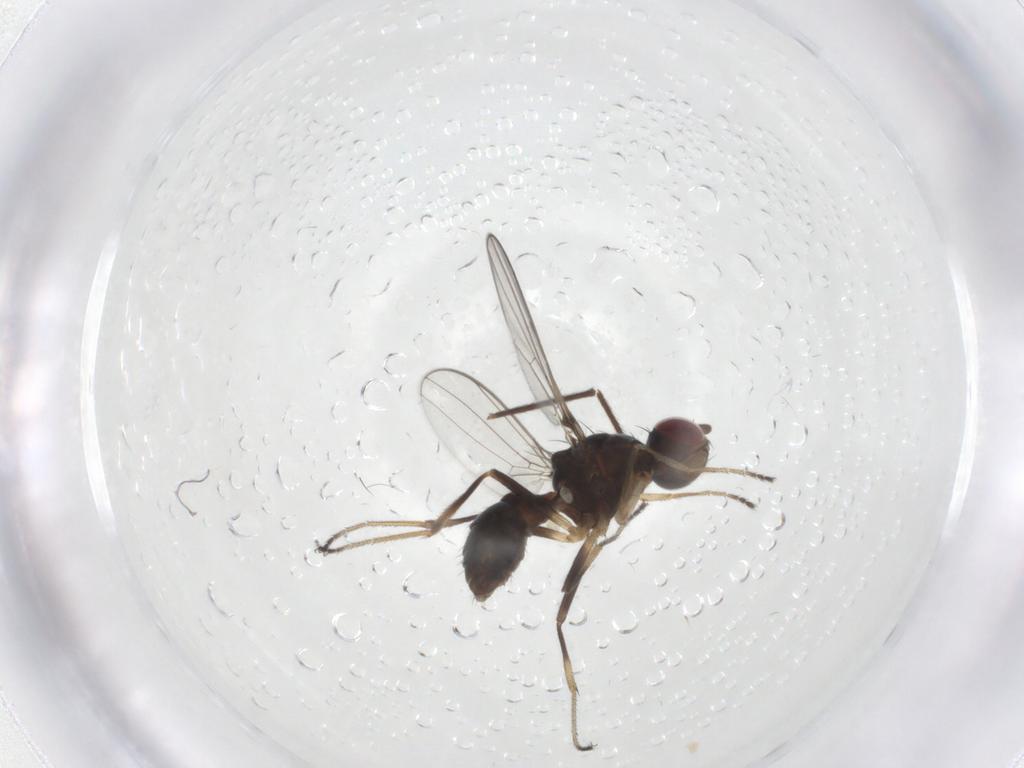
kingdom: Animalia
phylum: Arthropoda
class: Insecta
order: Diptera
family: Sepsidae
